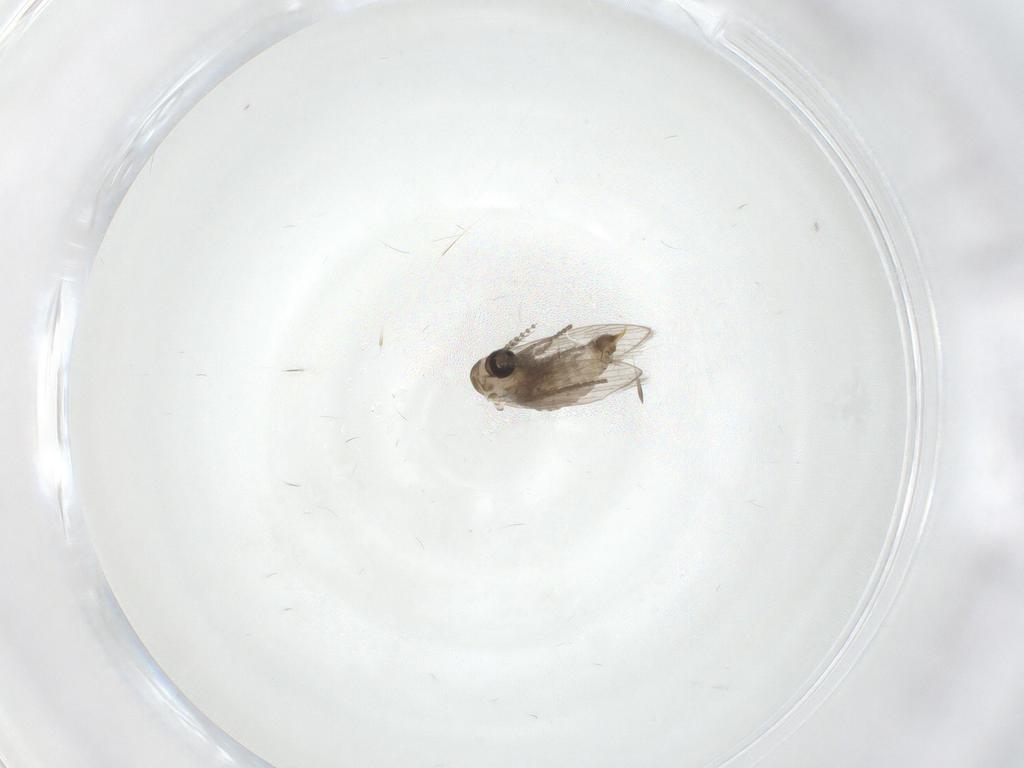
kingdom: Animalia
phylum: Arthropoda
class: Insecta
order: Diptera
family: Psychodidae
